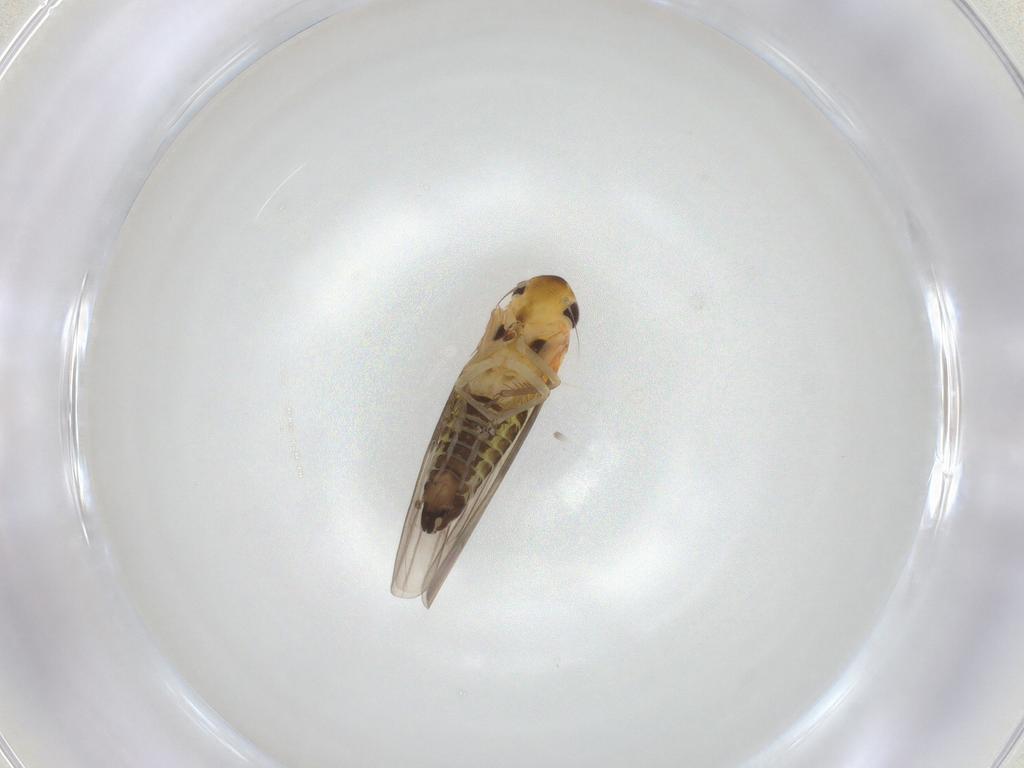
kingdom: Animalia
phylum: Arthropoda
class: Insecta
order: Hemiptera
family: Cicadellidae
